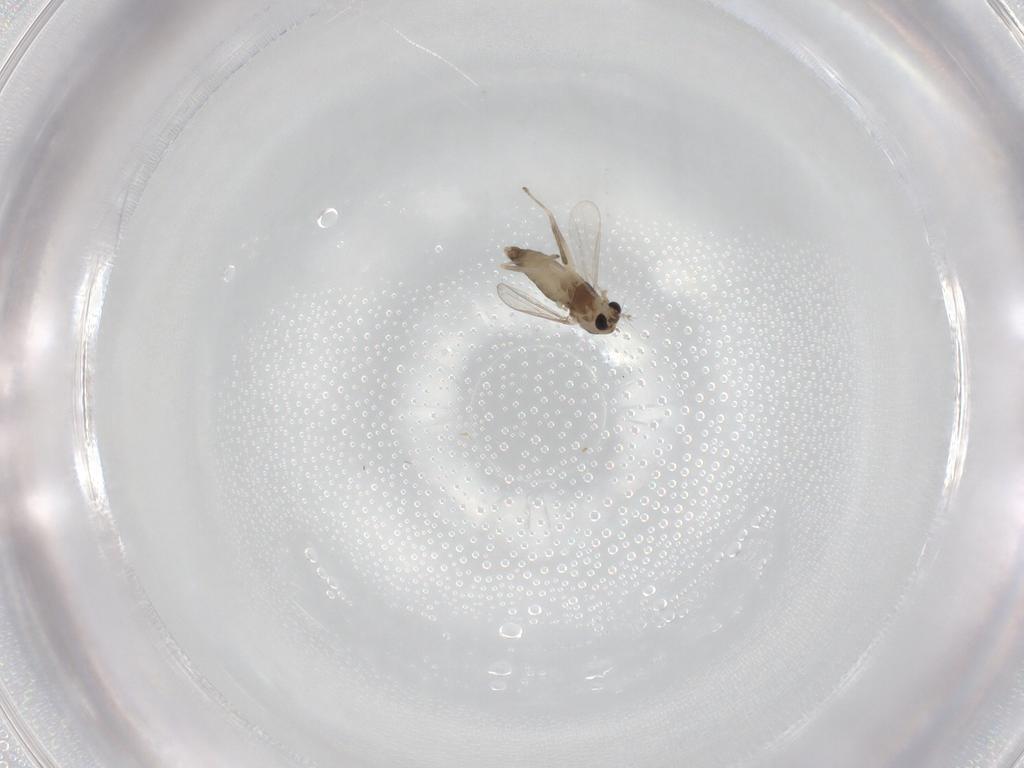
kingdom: Animalia
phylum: Arthropoda
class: Insecta
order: Diptera
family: Chironomidae
